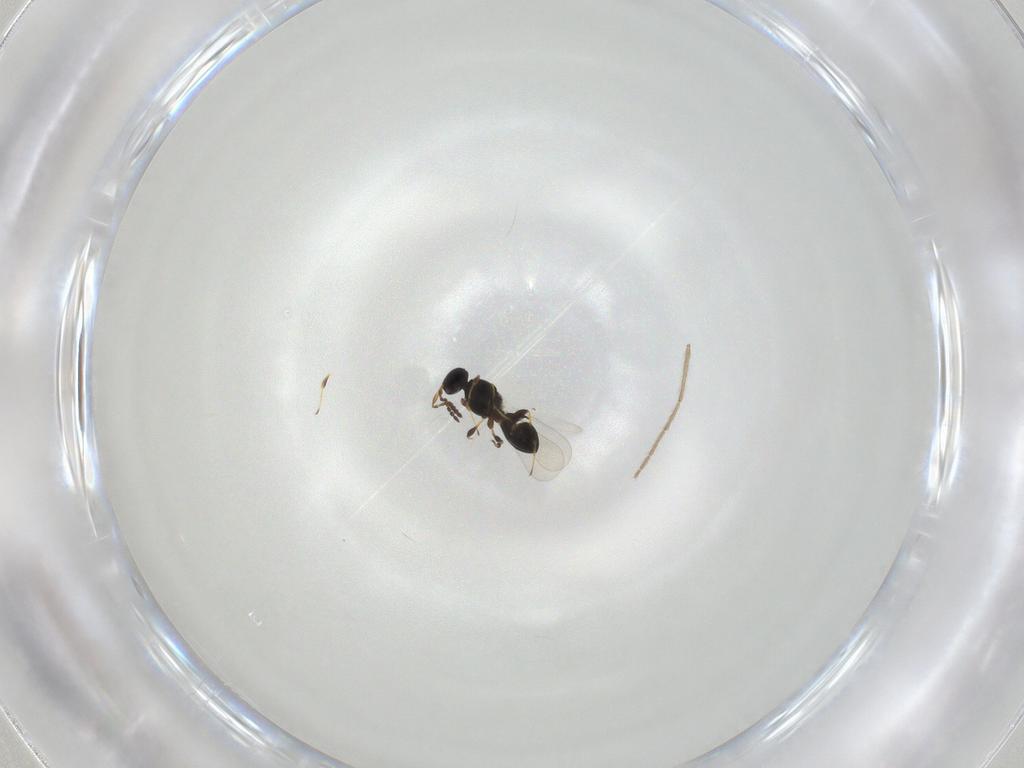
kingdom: Animalia
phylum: Arthropoda
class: Insecta
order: Hymenoptera
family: Platygastridae
